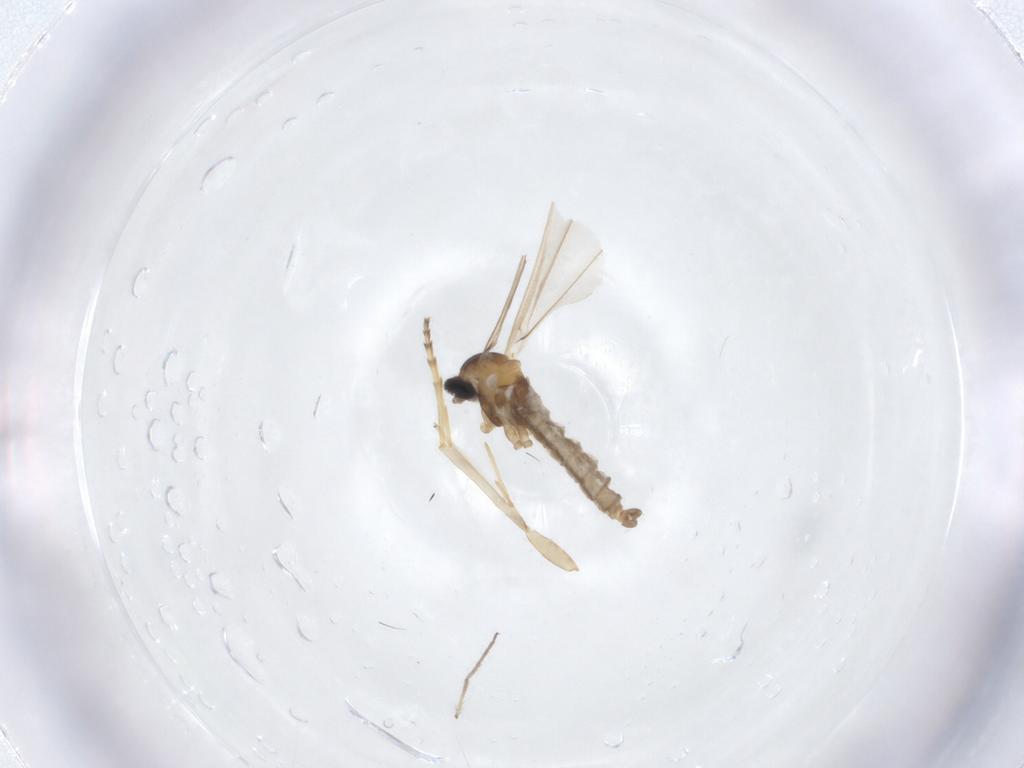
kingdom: Animalia
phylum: Arthropoda
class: Insecta
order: Diptera
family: Cecidomyiidae
